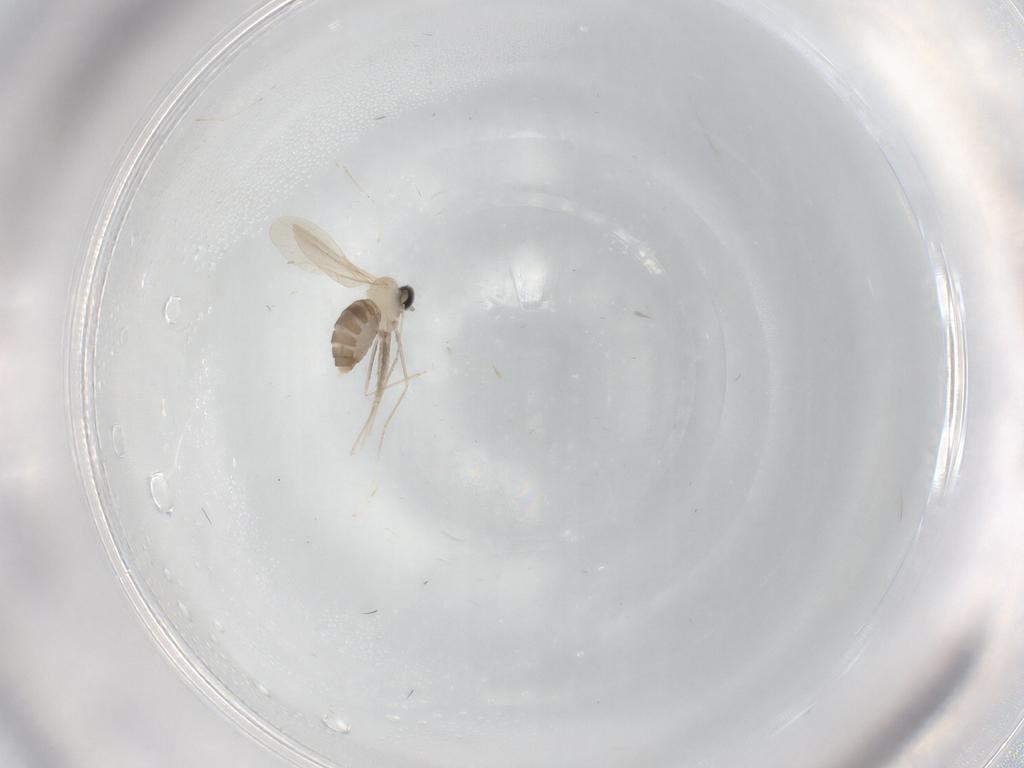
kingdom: Animalia
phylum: Arthropoda
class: Insecta
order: Diptera
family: Cecidomyiidae
